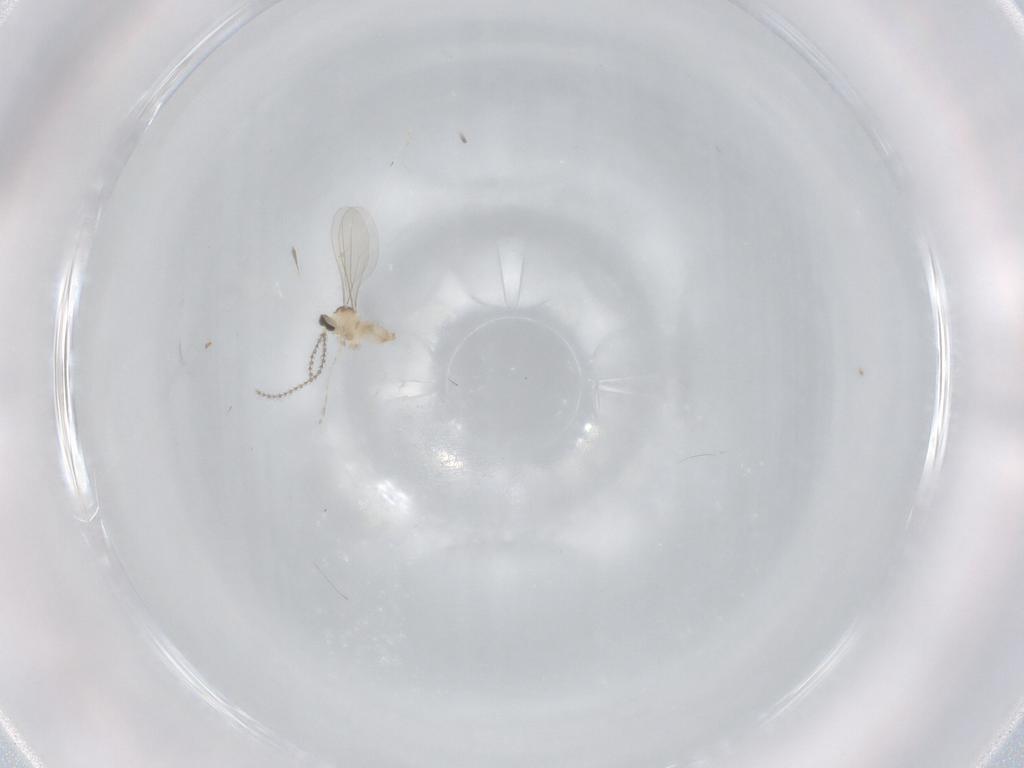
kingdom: Animalia
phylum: Arthropoda
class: Insecta
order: Diptera
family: Cecidomyiidae
